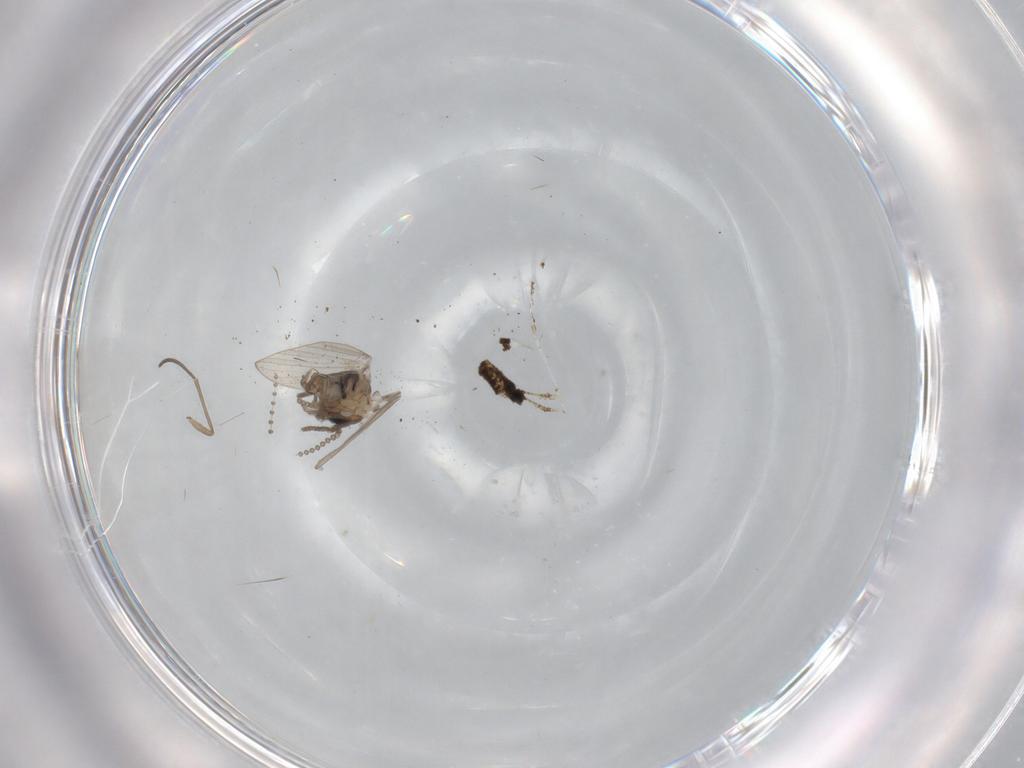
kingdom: Animalia
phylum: Arthropoda
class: Insecta
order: Diptera
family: Psychodidae
